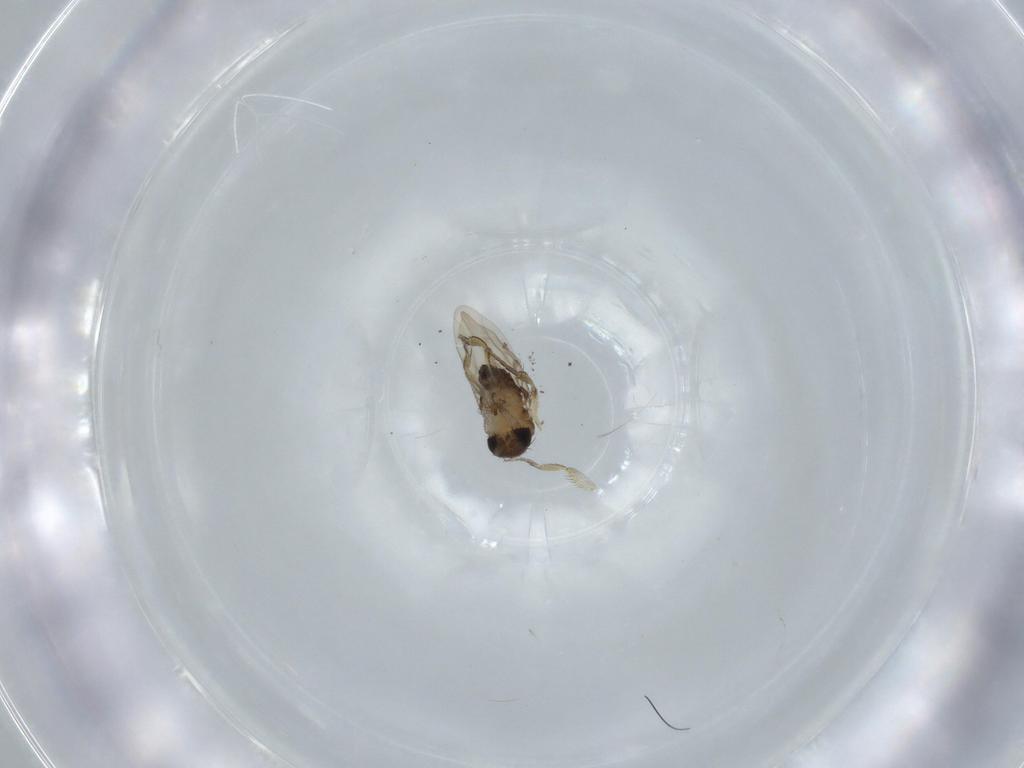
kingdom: Animalia
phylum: Arthropoda
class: Insecta
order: Diptera
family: Phoridae
